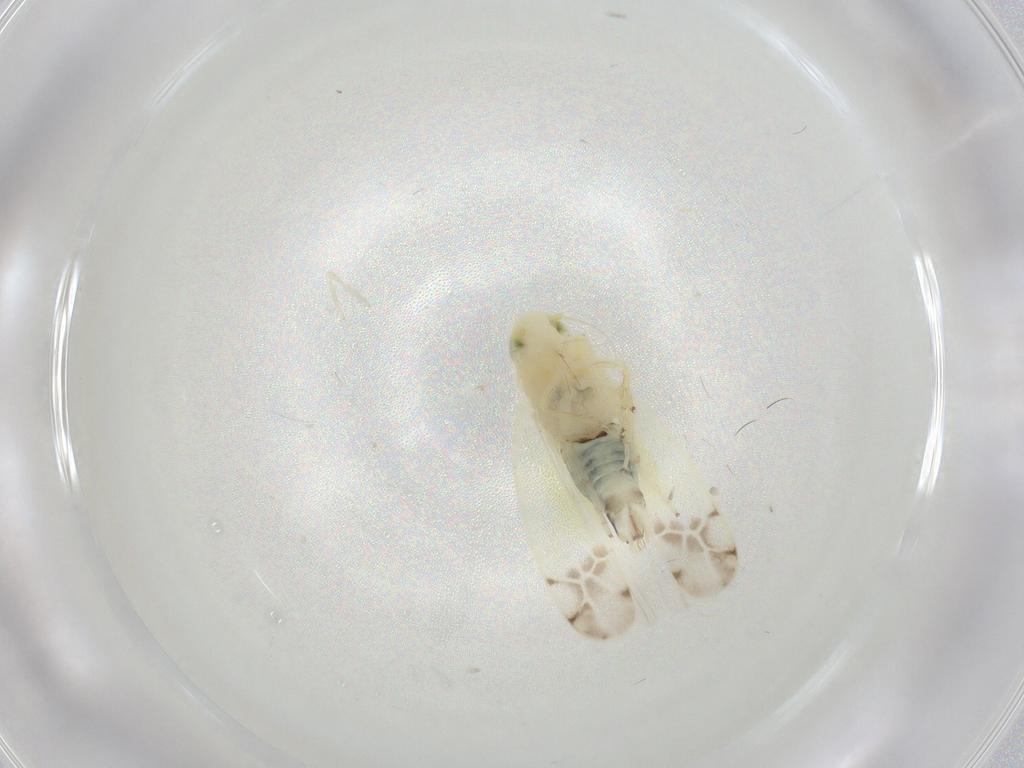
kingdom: Animalia
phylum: Arthropoda
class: Insecta
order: Hemiptera
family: Cicadellidae
